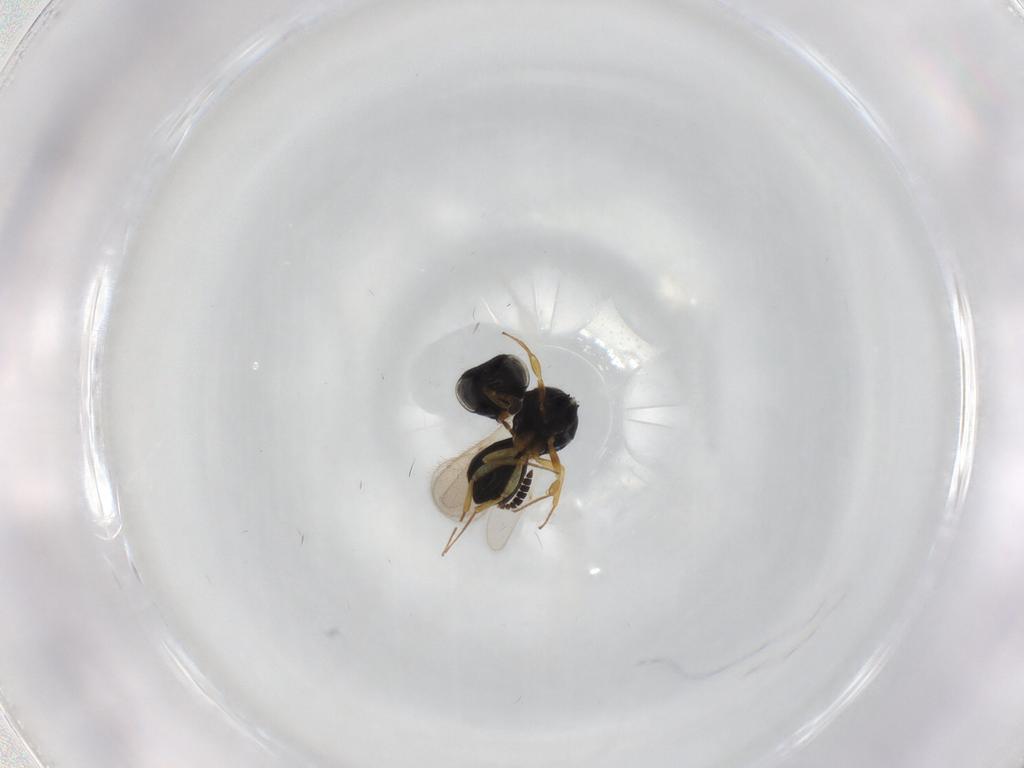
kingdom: Animalia
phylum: Arthropoda
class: Insecta
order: Hymenoptera
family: Scelionidae
